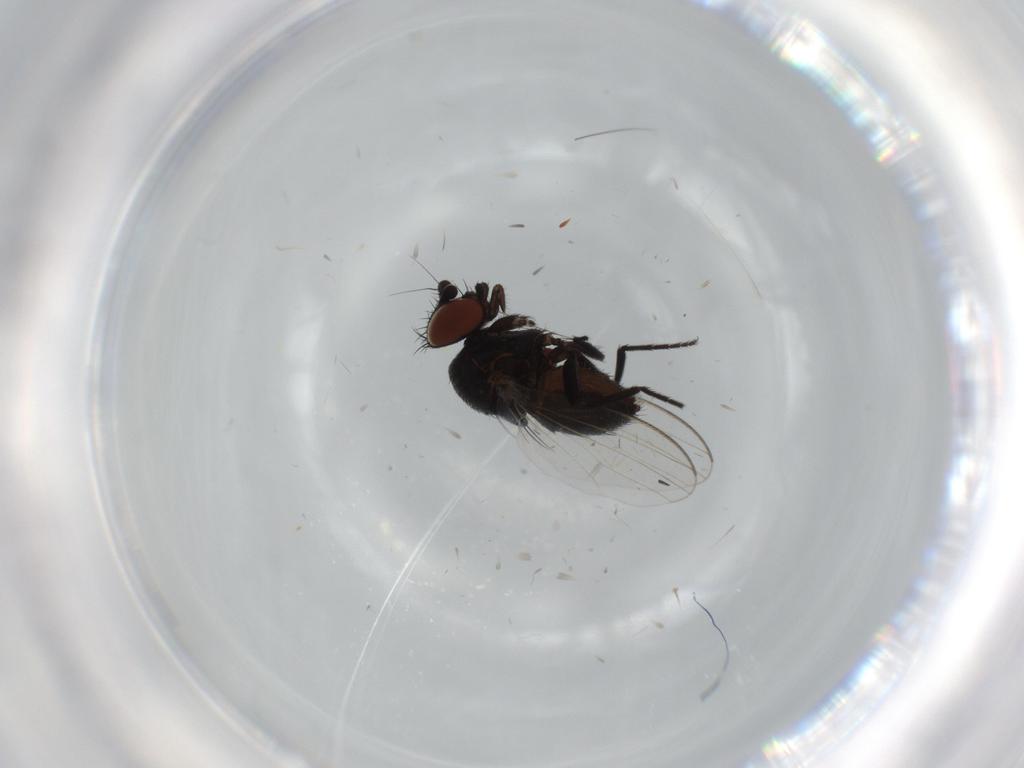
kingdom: Animalia
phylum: Arthropoda
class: Insecta
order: Diptera
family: Milichiidae
